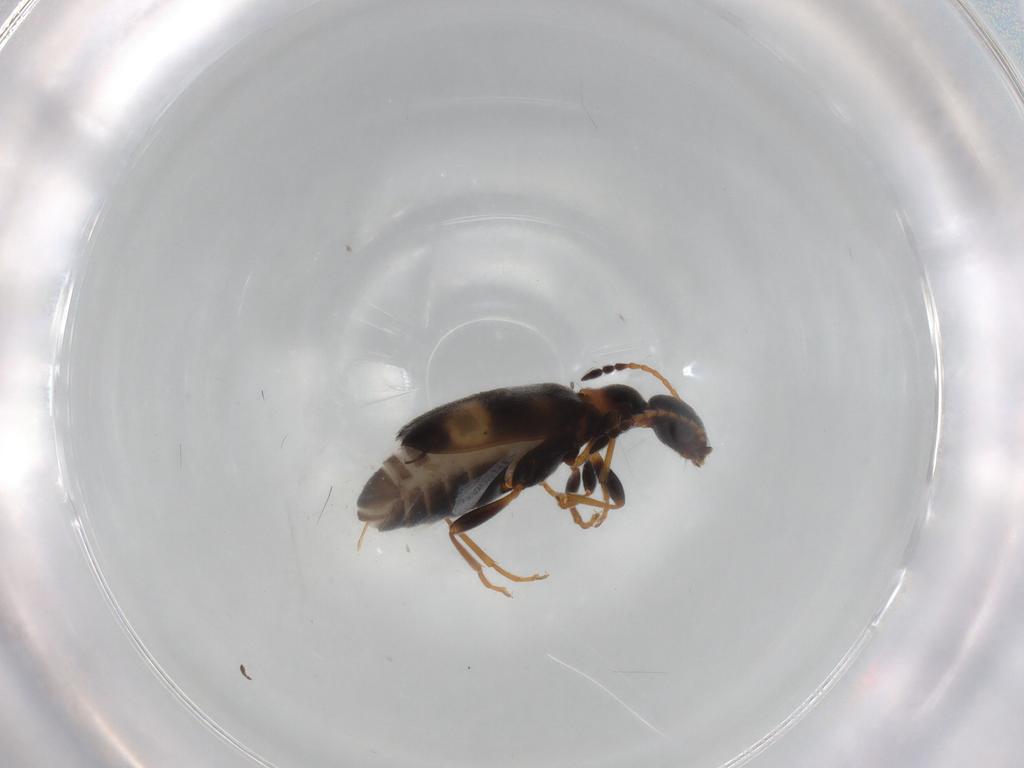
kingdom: Animalia
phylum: Arthropoda
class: Insecta
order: Coleoptera
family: Anthicidae
